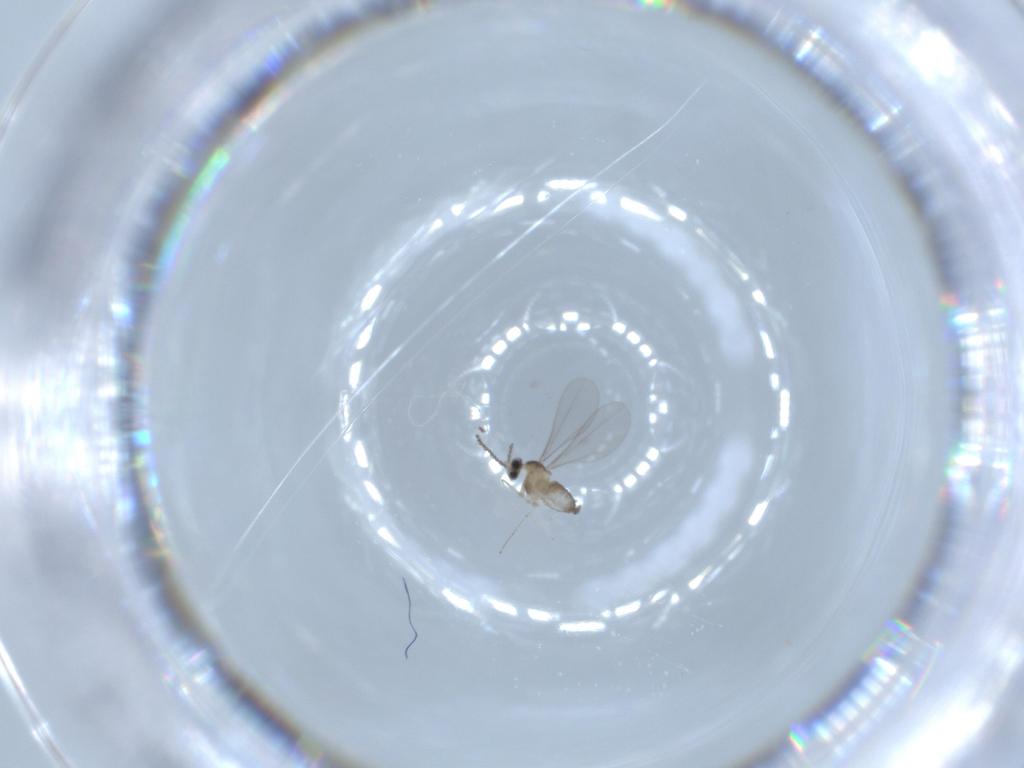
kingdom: Animalia
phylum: Arthropoda
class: Insecta
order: Diptera
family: Cecidomyiidae
